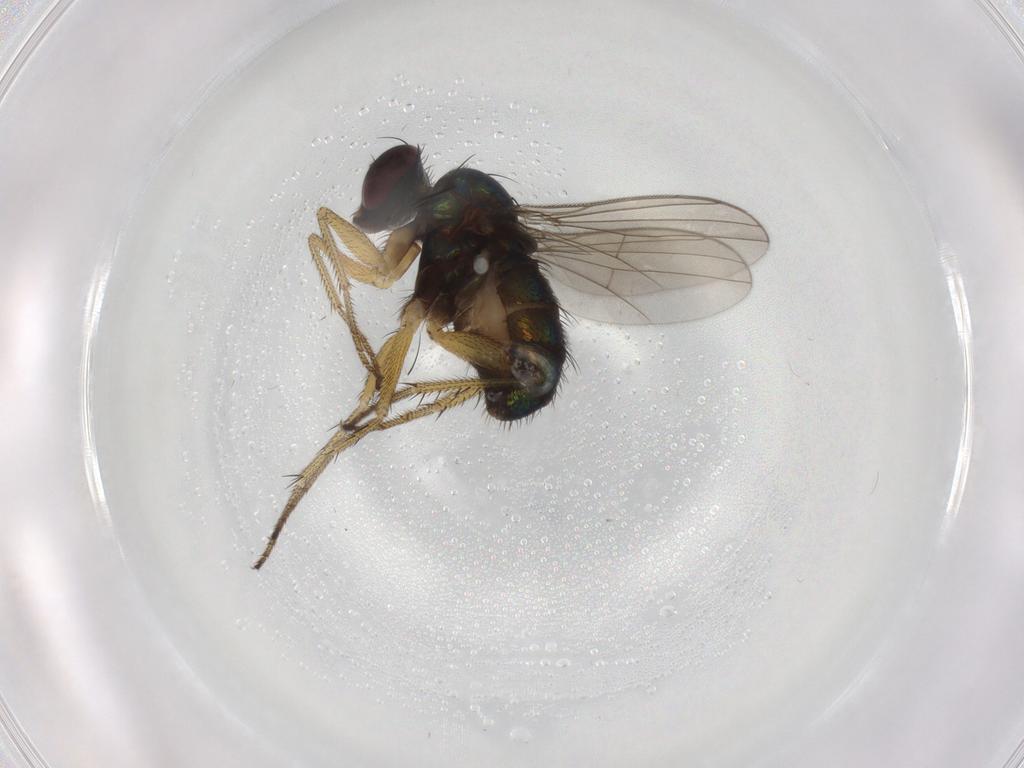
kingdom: Animalia
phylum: Arthropoda
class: Insecta
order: Diptera
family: Dolichopodidae
